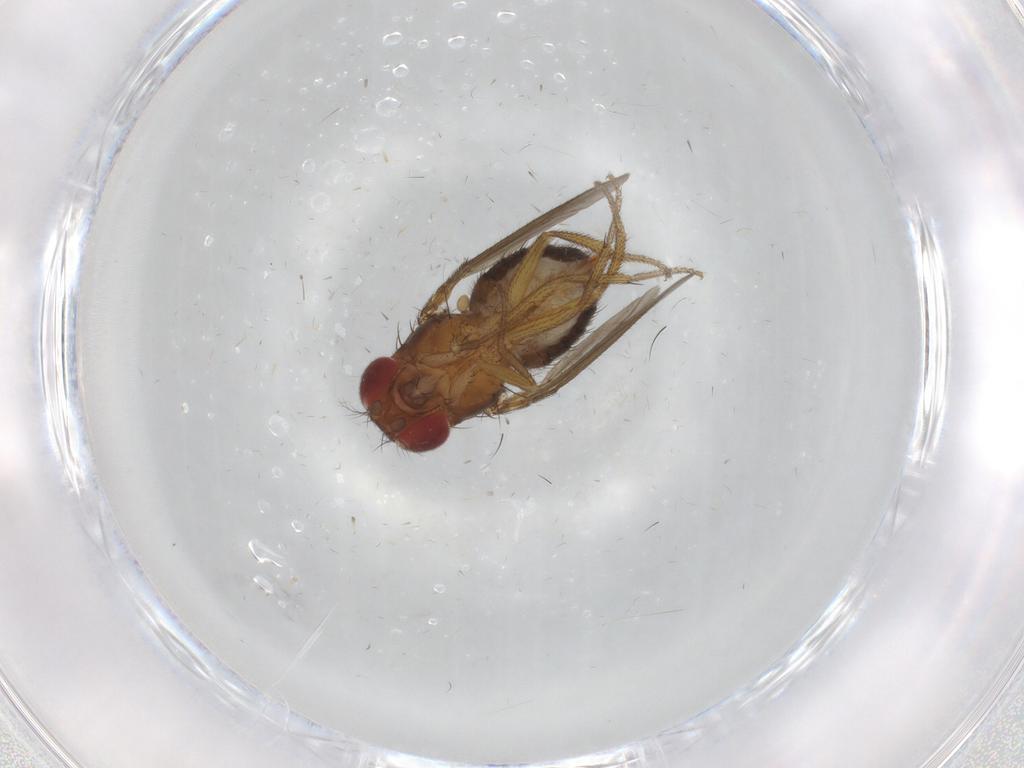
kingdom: Animalia
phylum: Arthropoda
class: Insecta
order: Diptera
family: Drosophilidae
